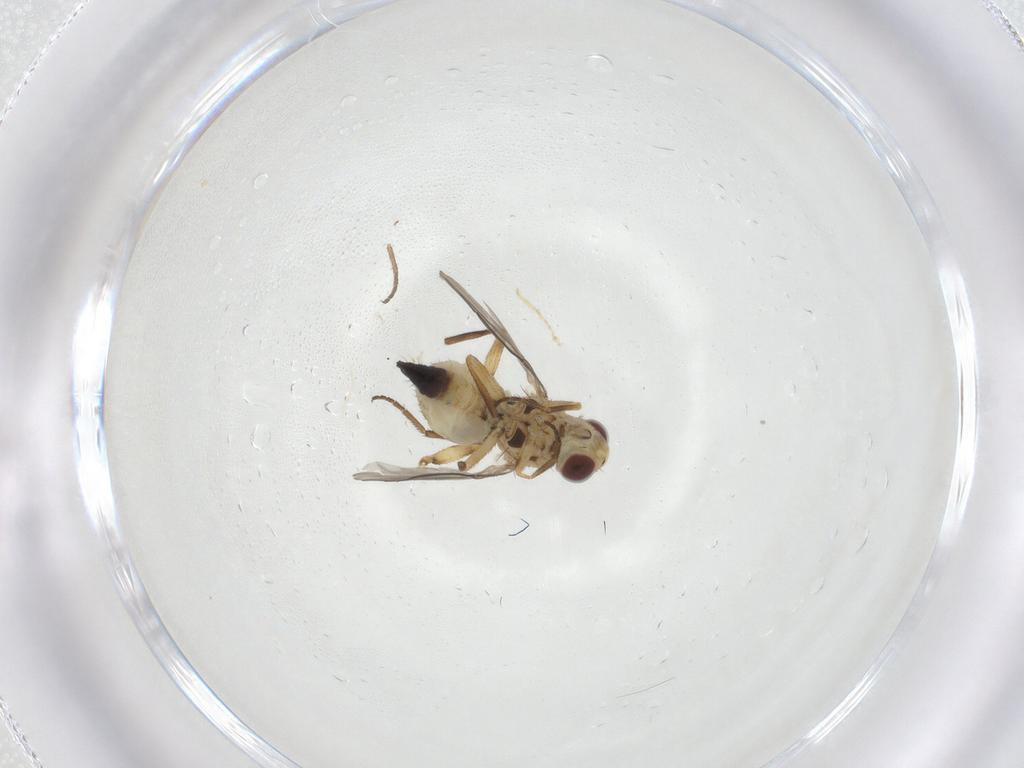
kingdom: Animalia
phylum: Arthropoda
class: Insecta
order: Diptera
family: Agromyzidae
